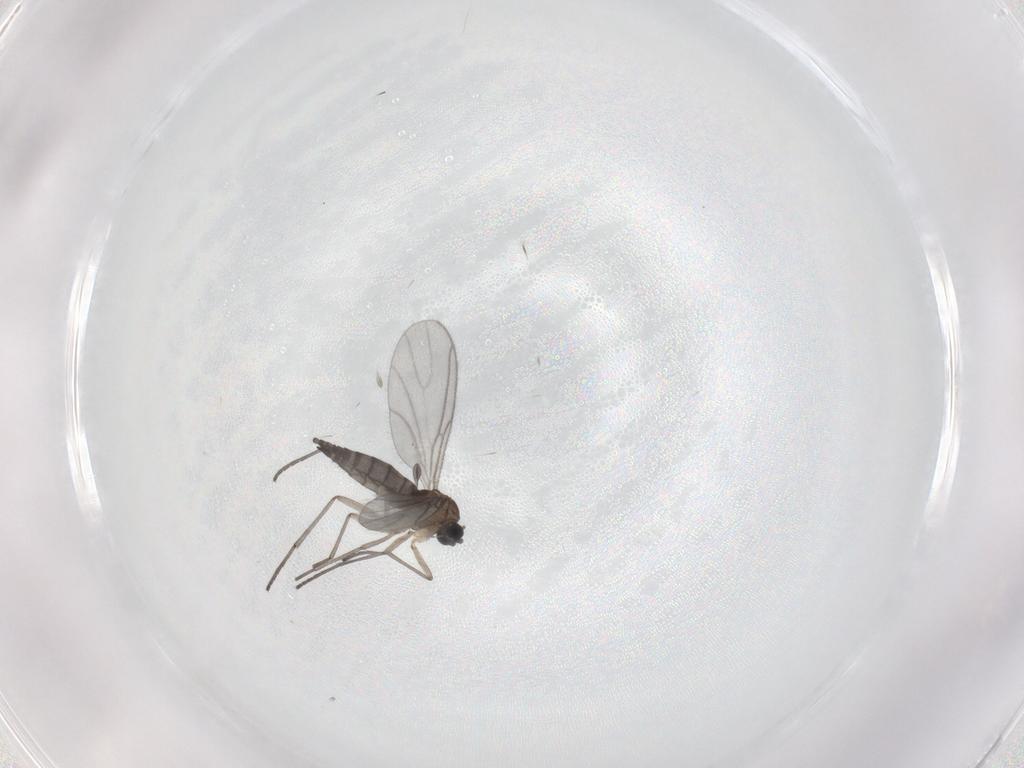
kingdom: Animalia
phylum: Arthropoda
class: Insecta
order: Diptera
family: Sciaridae
